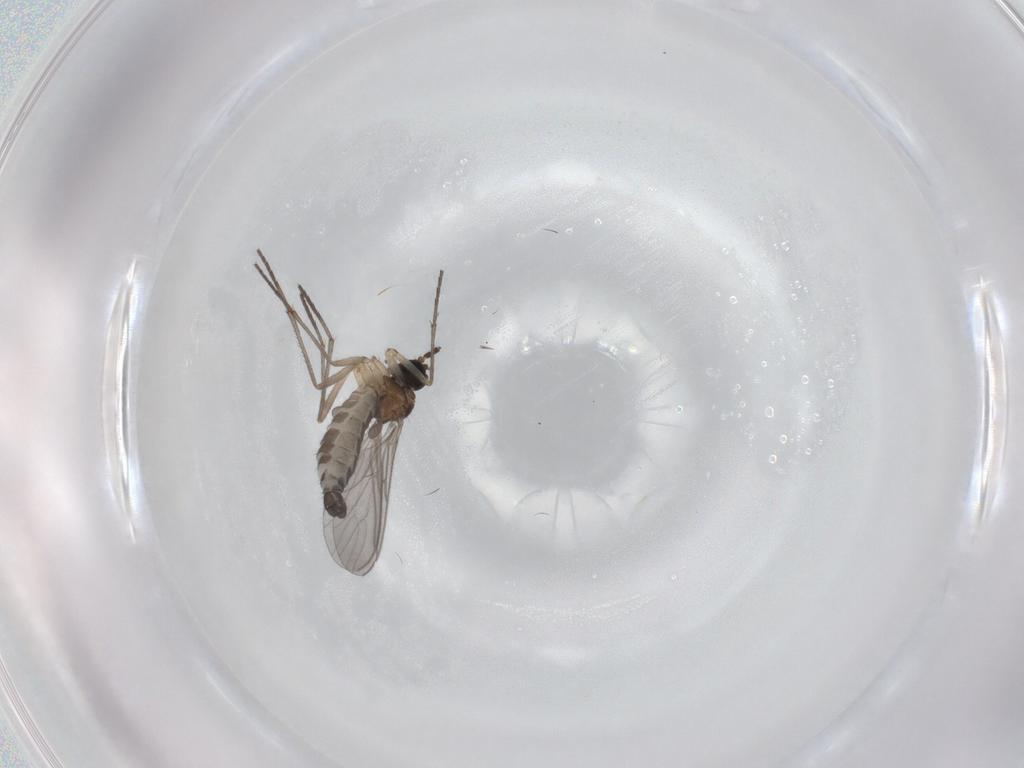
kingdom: Animalia
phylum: Arthropoda
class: Insecta
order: Diptera
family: Sciaridae
